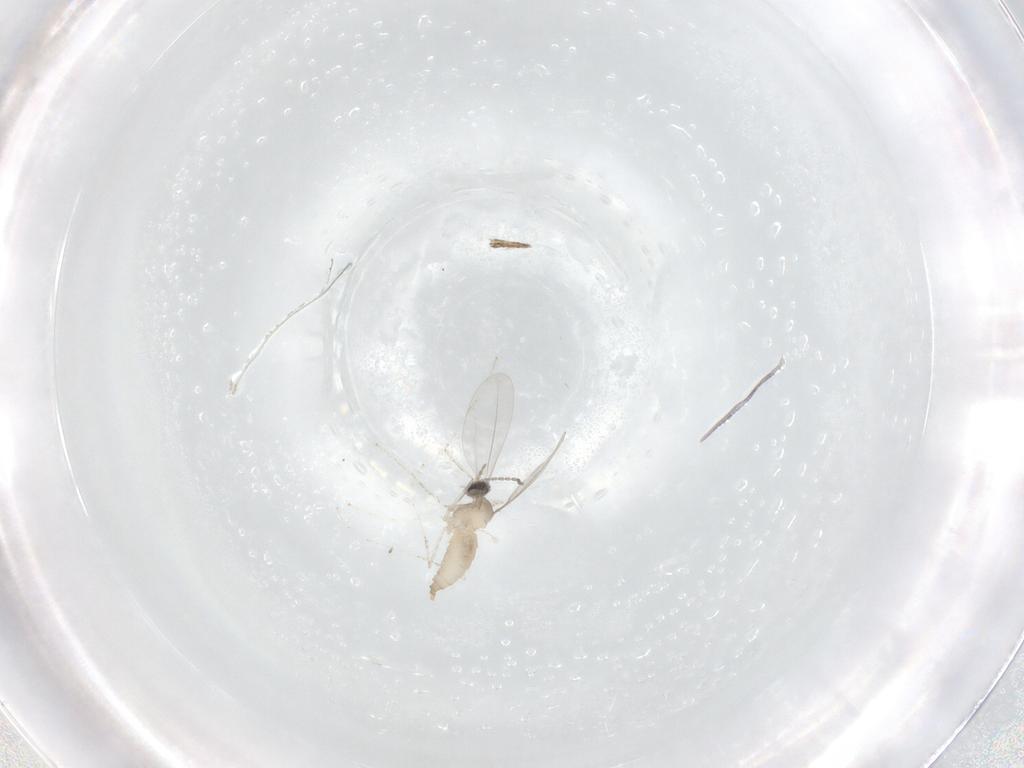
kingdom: Animalia
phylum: Arthropoda
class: Insecta
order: Diptera
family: Cecidomyiidae
